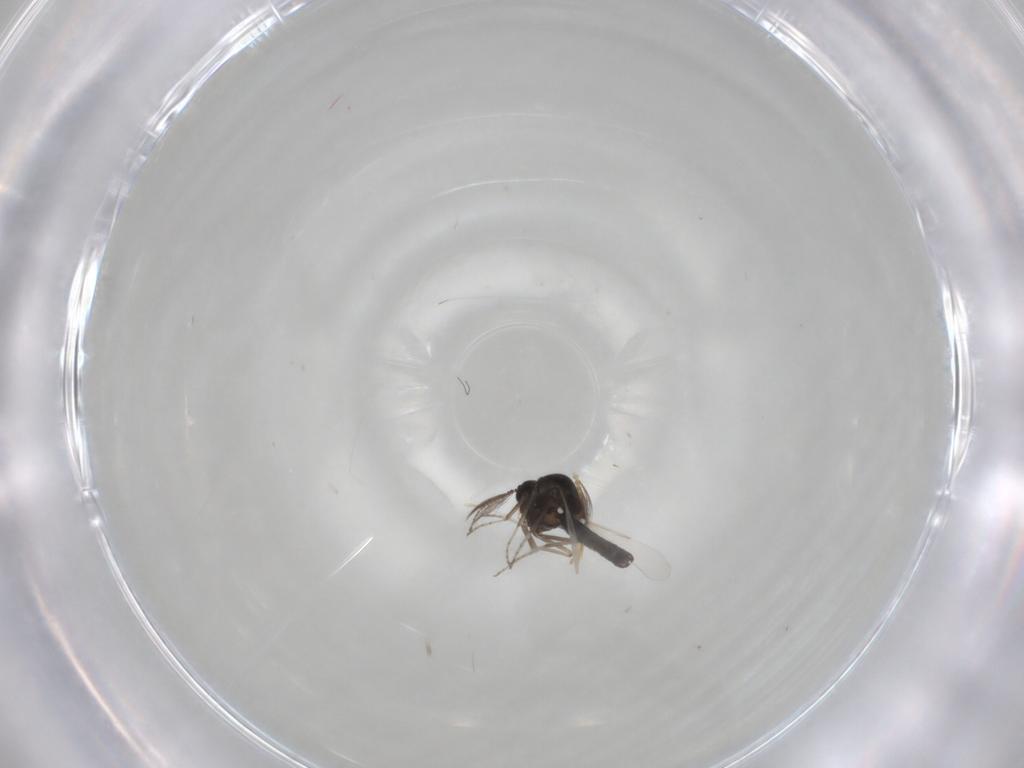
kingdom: Animalia
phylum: Arthropoda
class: Insecta
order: Diptera
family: Ceratopogonidae
